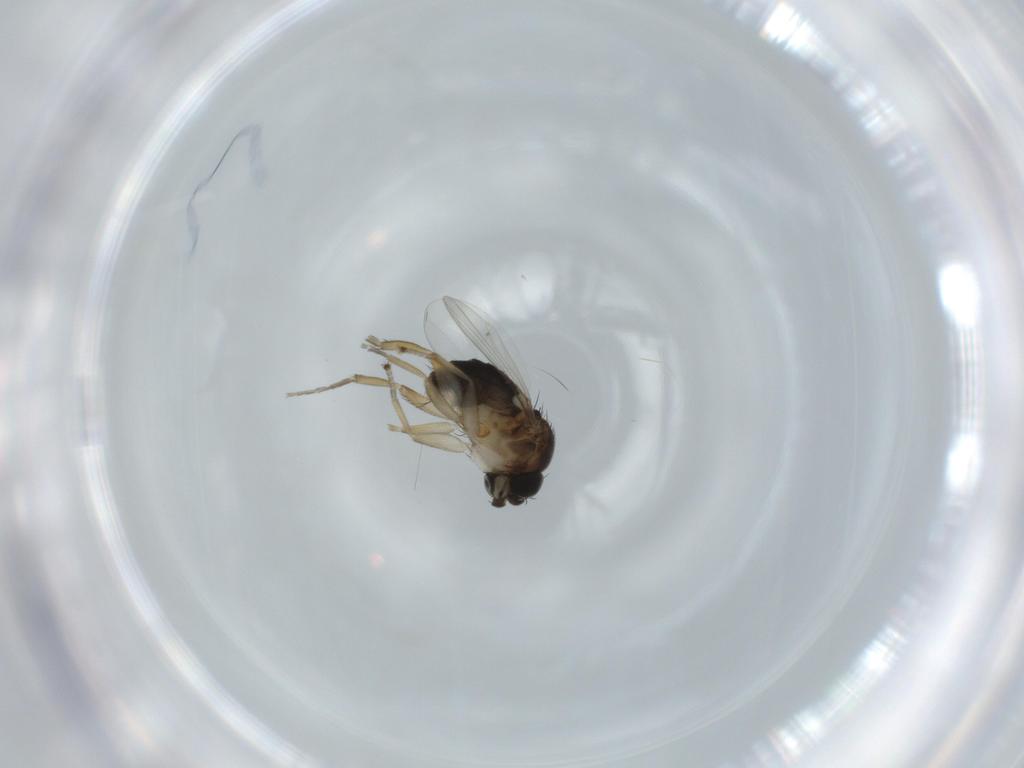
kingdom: Animalia
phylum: Arthropoda
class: Insecta
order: Diptera
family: Phoridae
